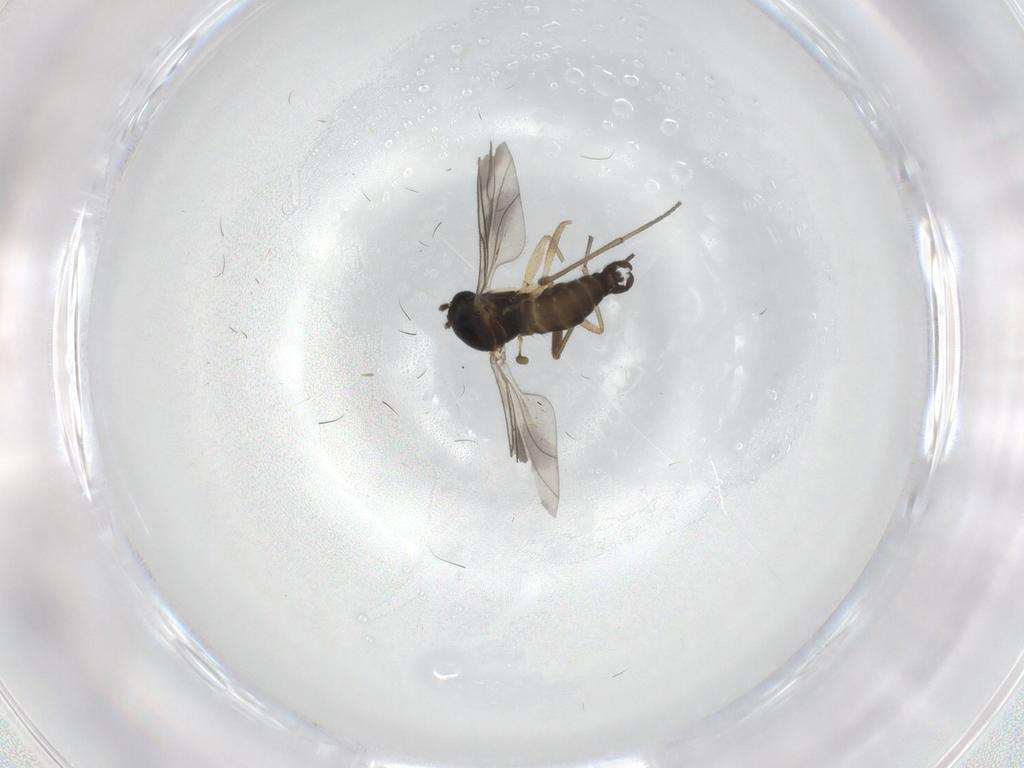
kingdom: Animalia
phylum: Arthropoda
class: Insecta
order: Diptera
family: Sciaridae
